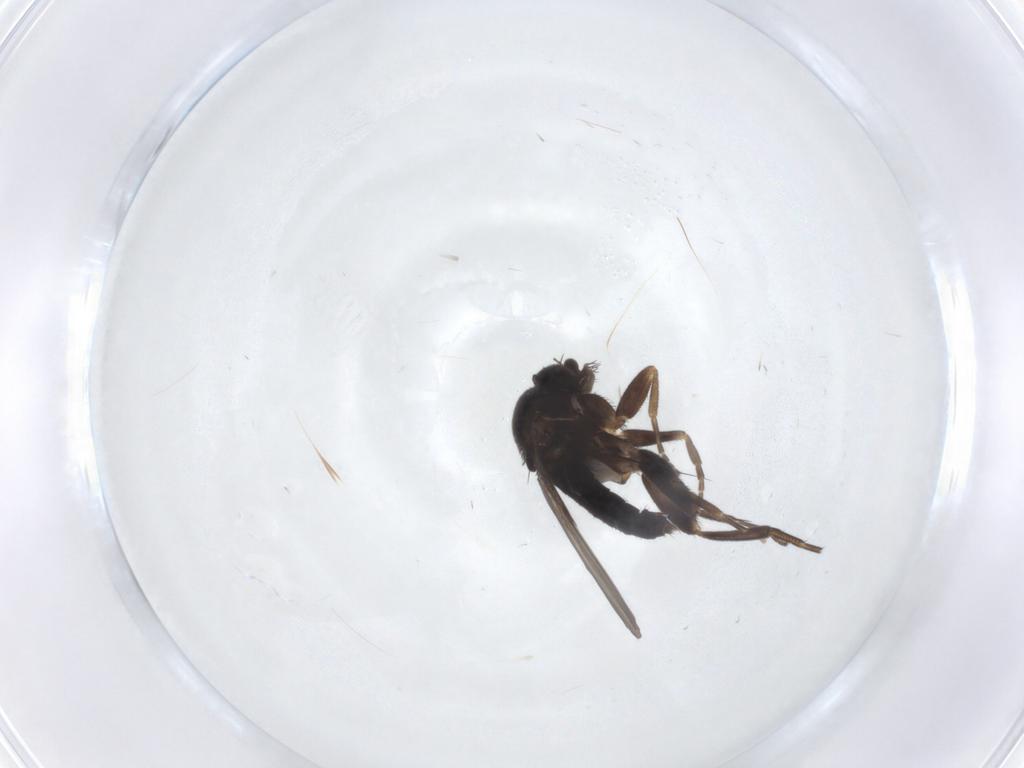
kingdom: Animalia
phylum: Arthropoda
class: Insecta
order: Diptera
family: Phoridae
